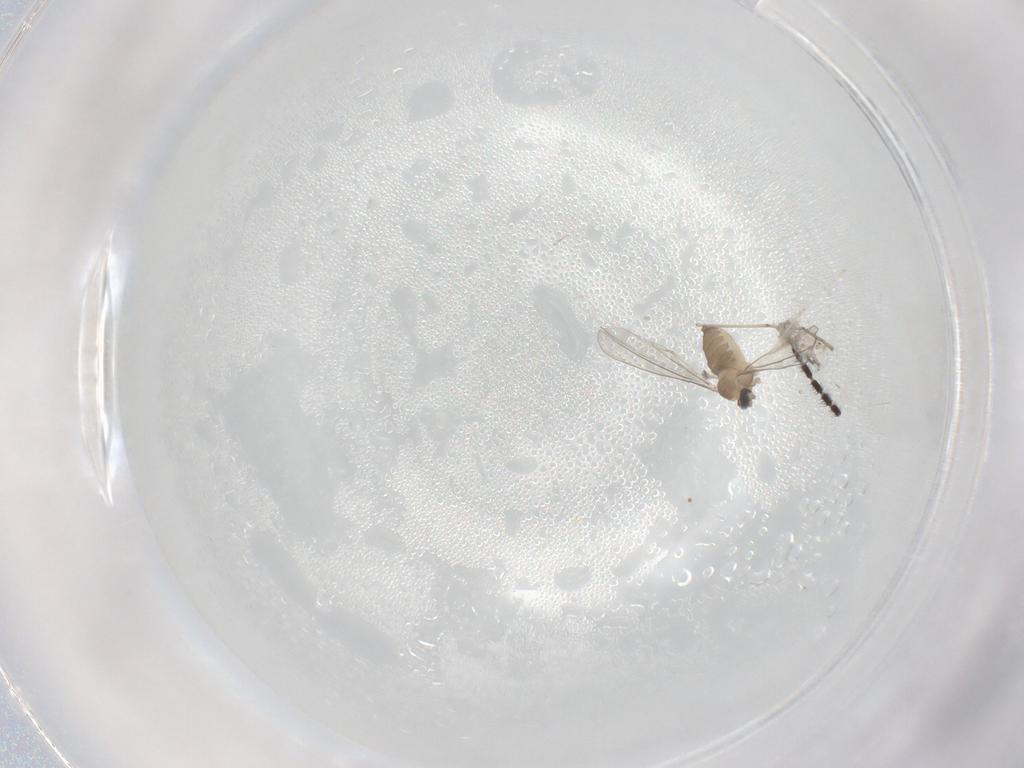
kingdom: Animalia
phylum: Arthropoda
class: Insecta
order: Diptera
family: Cecidomyiidae
